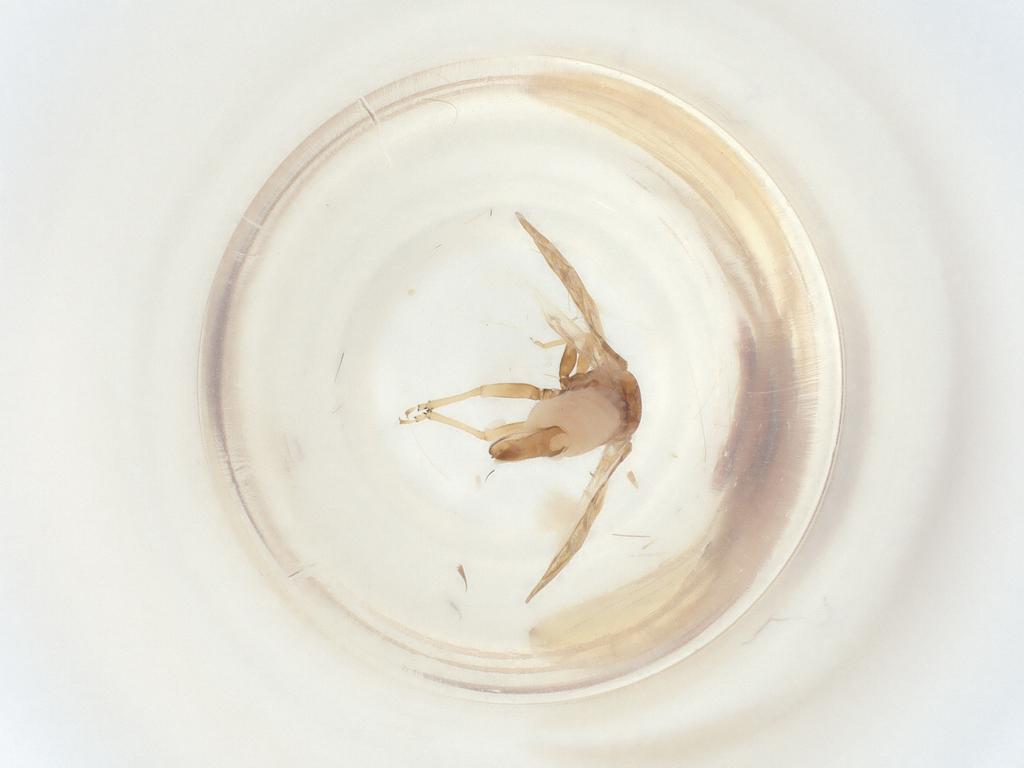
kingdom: Animalia
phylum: Arthropoda
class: Insecta
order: Hemiptera
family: Psyllidae
